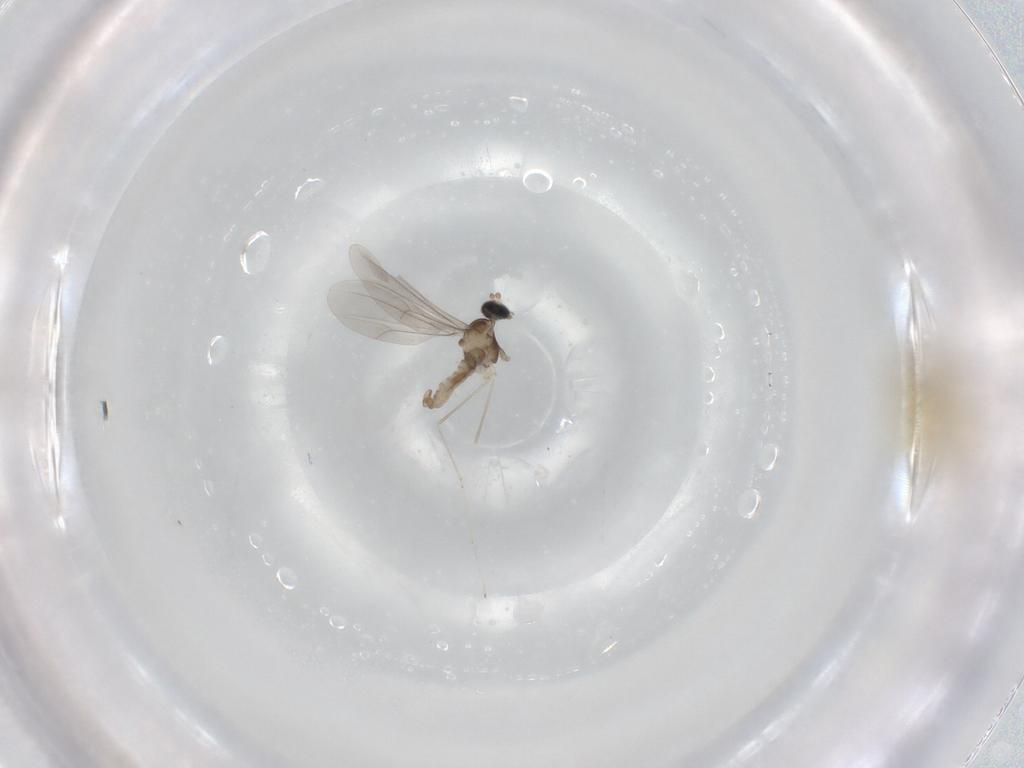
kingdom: Animalia
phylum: Arthropoda
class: Insecta
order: Diptera
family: Chironomidae
